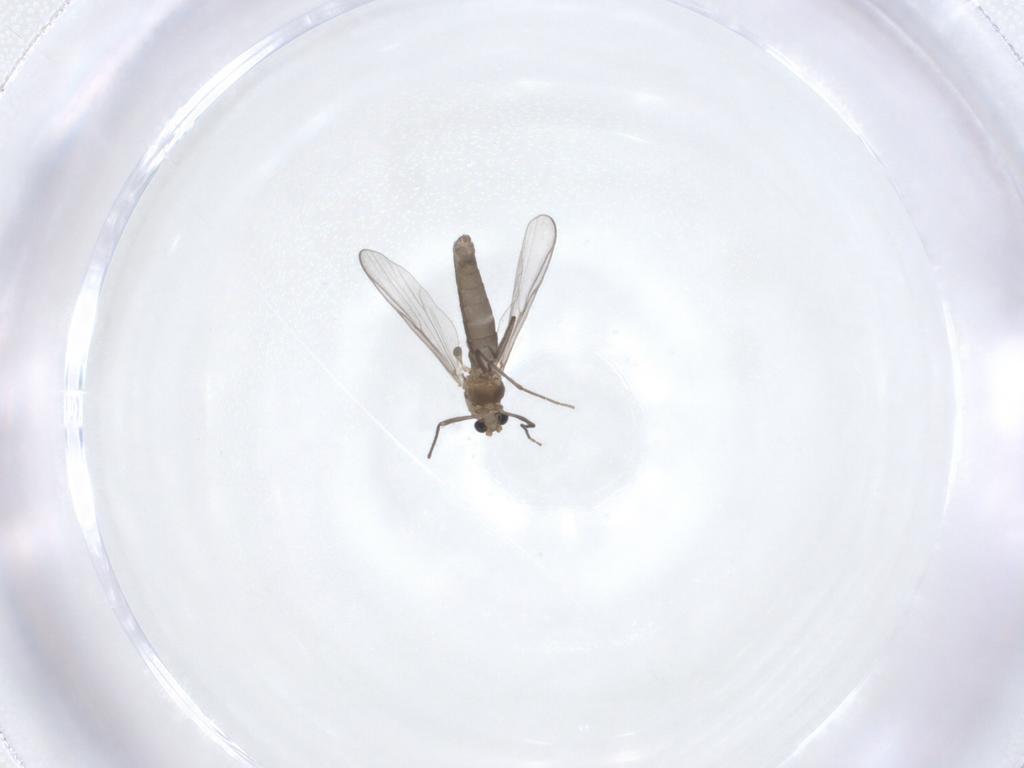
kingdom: Animalia
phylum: Arthropoda
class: Insecta
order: Diptera
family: Chironomidae
